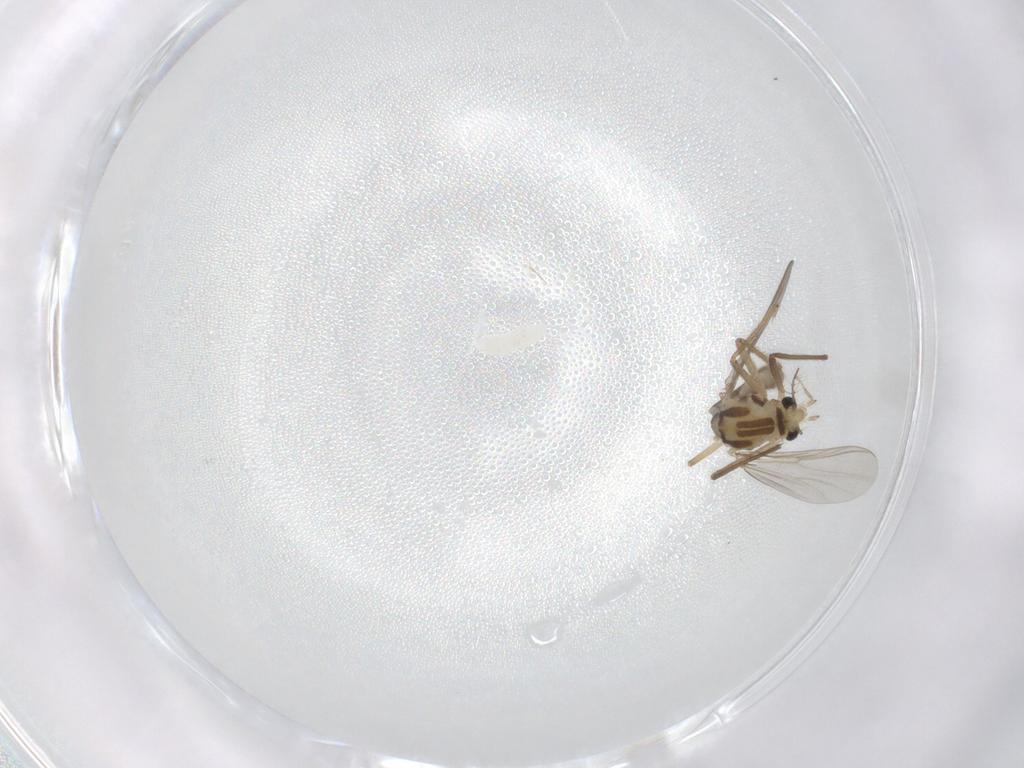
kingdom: Animalia
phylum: Arthropoda
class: Insecta
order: Diptera
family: Chironomidae
